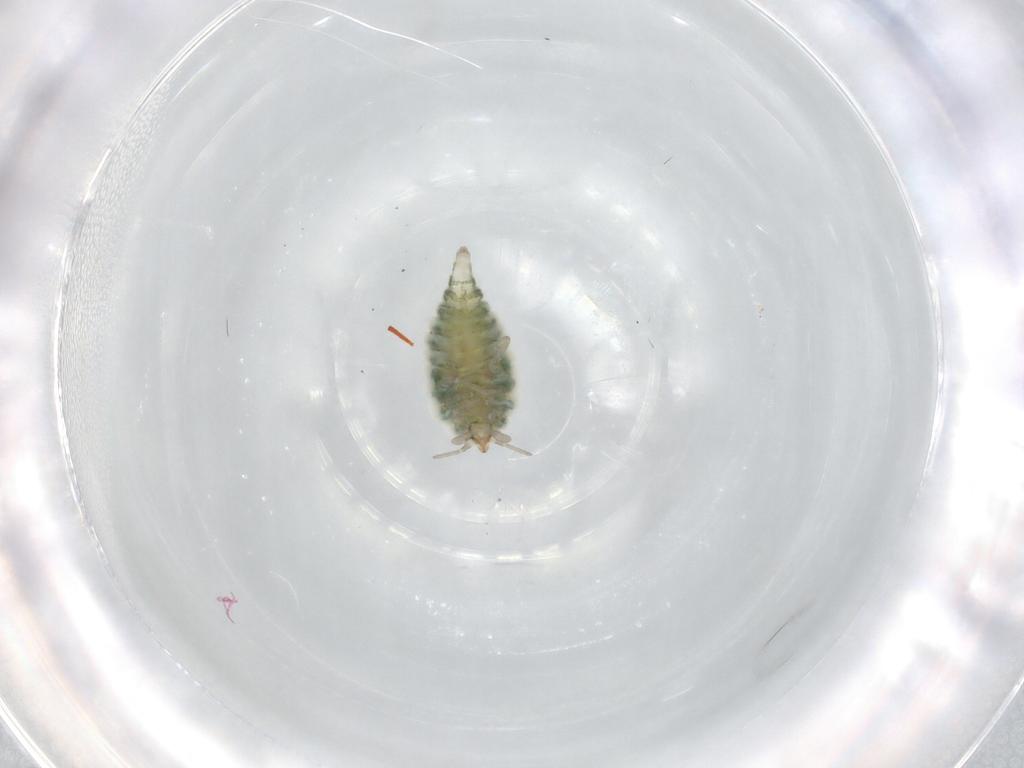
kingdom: Animalia
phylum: Arthropoda
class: Insecta
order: Neuroptera
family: Coniopterygidae
